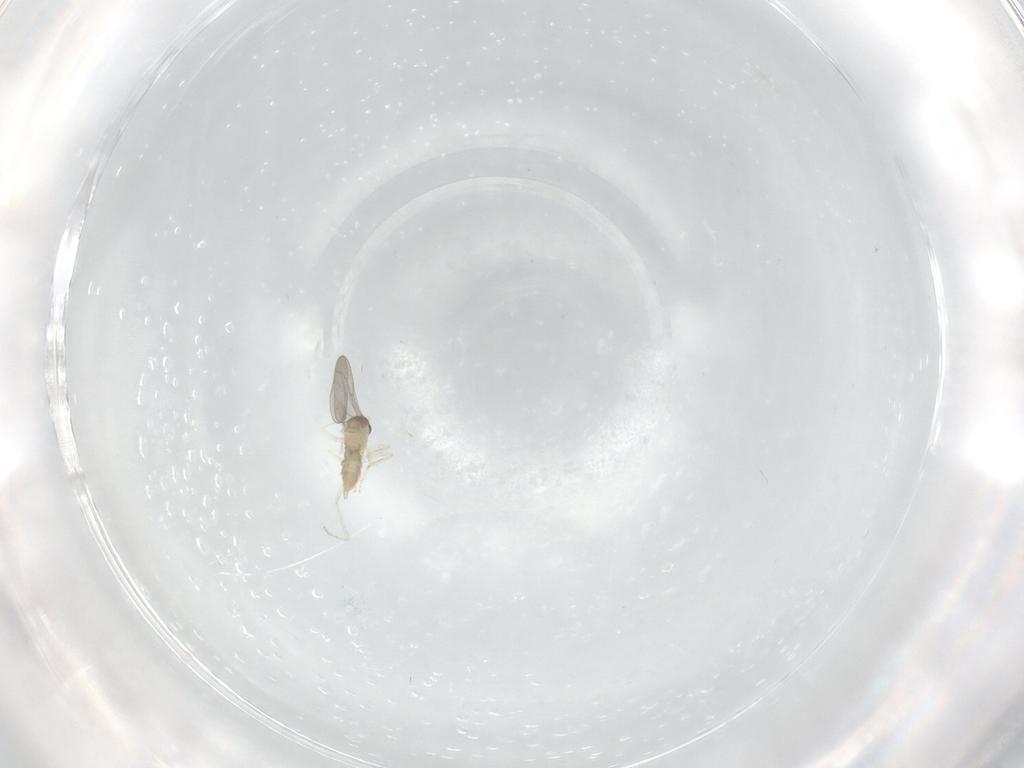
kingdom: Animalia
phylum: Arthropoda
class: Insecta
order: Diptera
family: Cecidomyiidae
